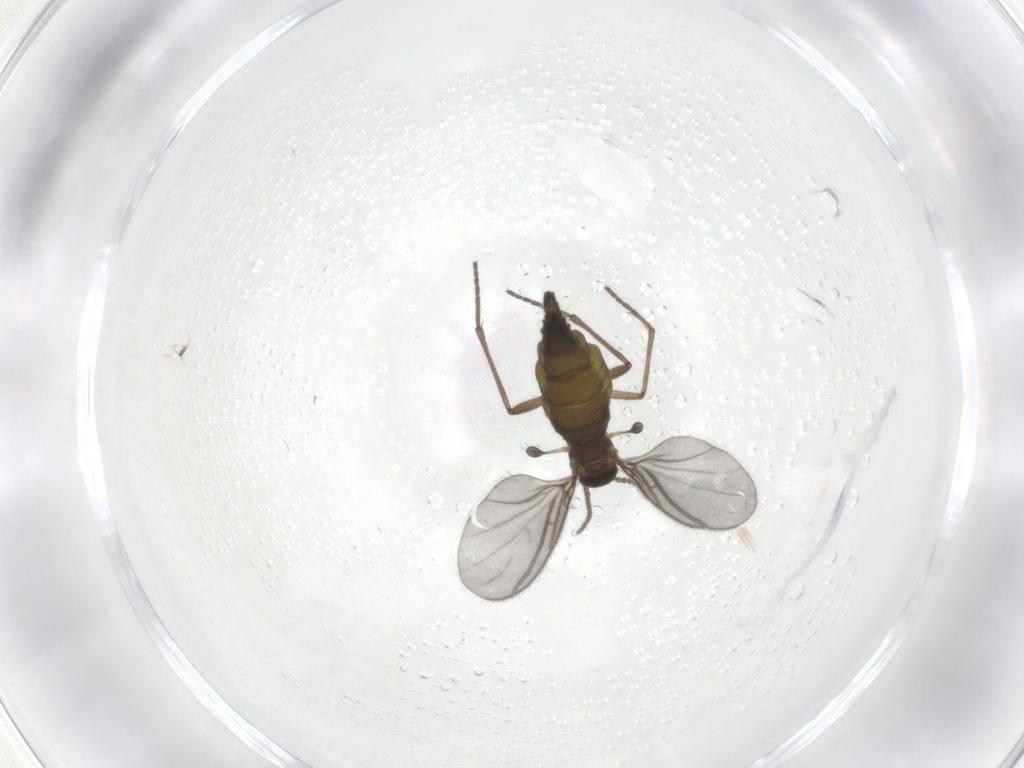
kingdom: Animalia
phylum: Arthropoda
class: Insecta
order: Diptera
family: Sciaridae
